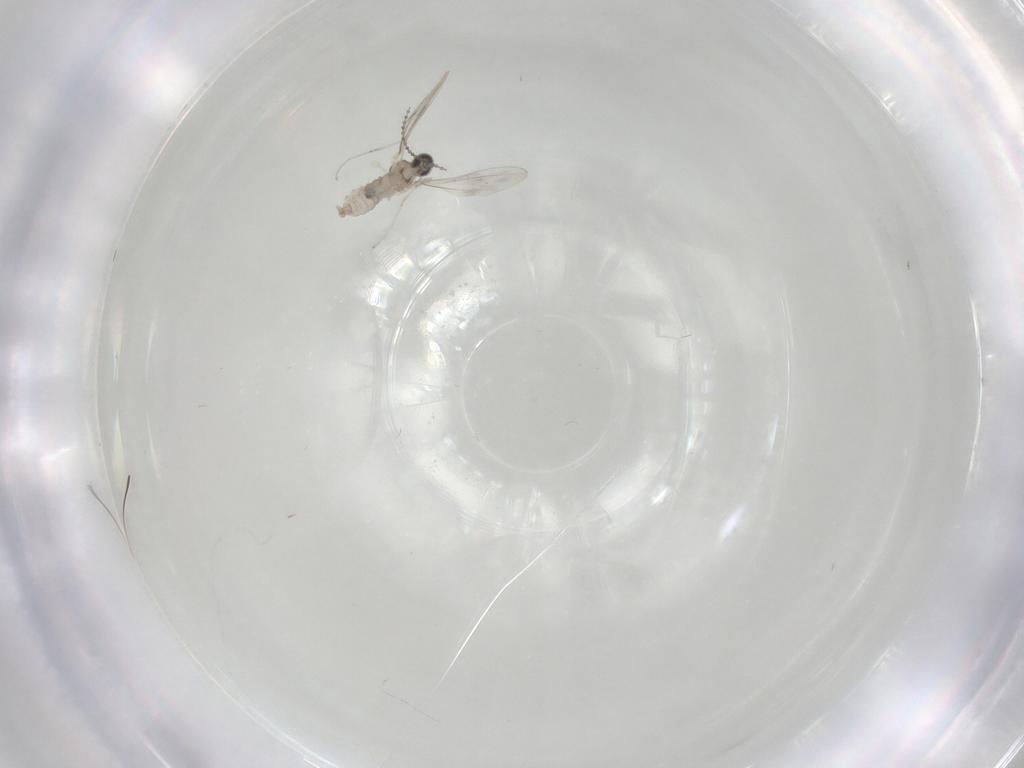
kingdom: Animalia
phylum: Arthropoda
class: Insecta
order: Diptera
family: Cecidomyiidae
